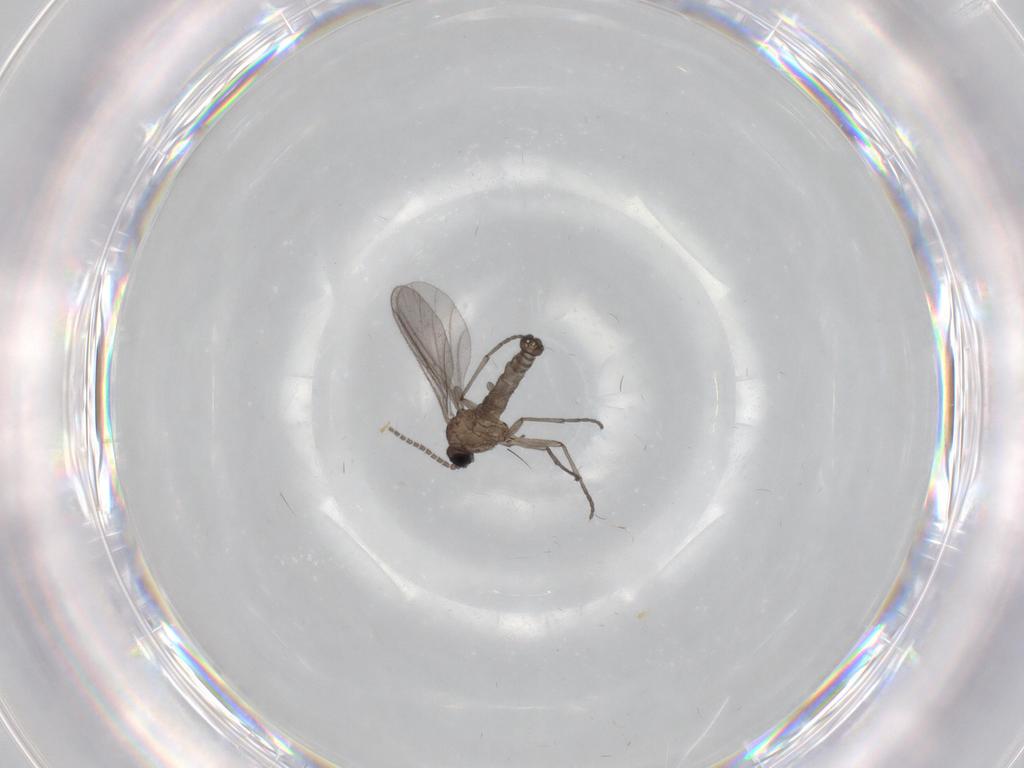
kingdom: Animalia
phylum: Arthropoda
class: Insecta
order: Diptera
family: Sciaridae
